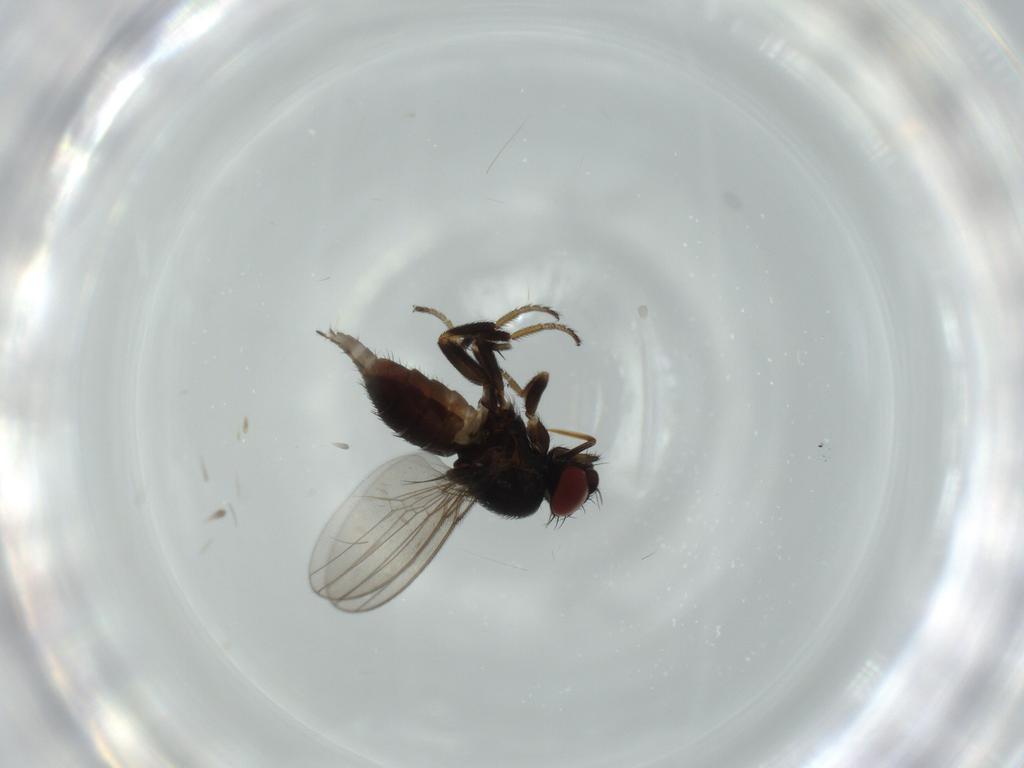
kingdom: Animalia
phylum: Arthropoda
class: Insecta
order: Diptera
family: Milichiidae
